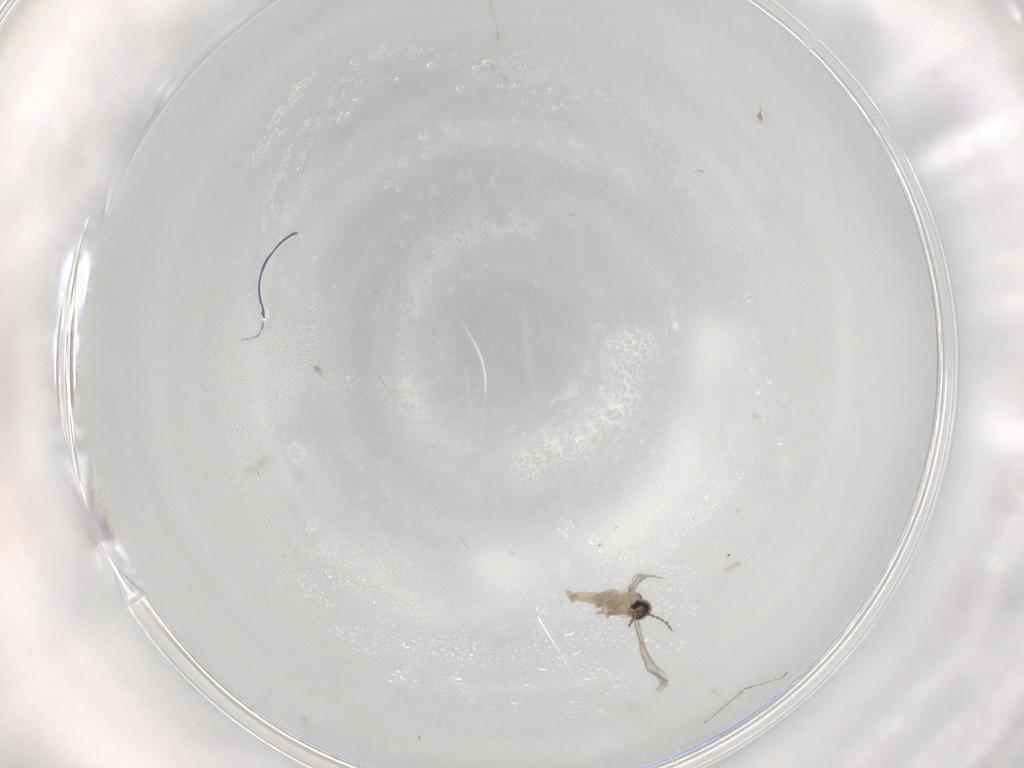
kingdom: Animalia
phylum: Arthropoda
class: Insecta
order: Diptera
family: Cecidomyiidae
